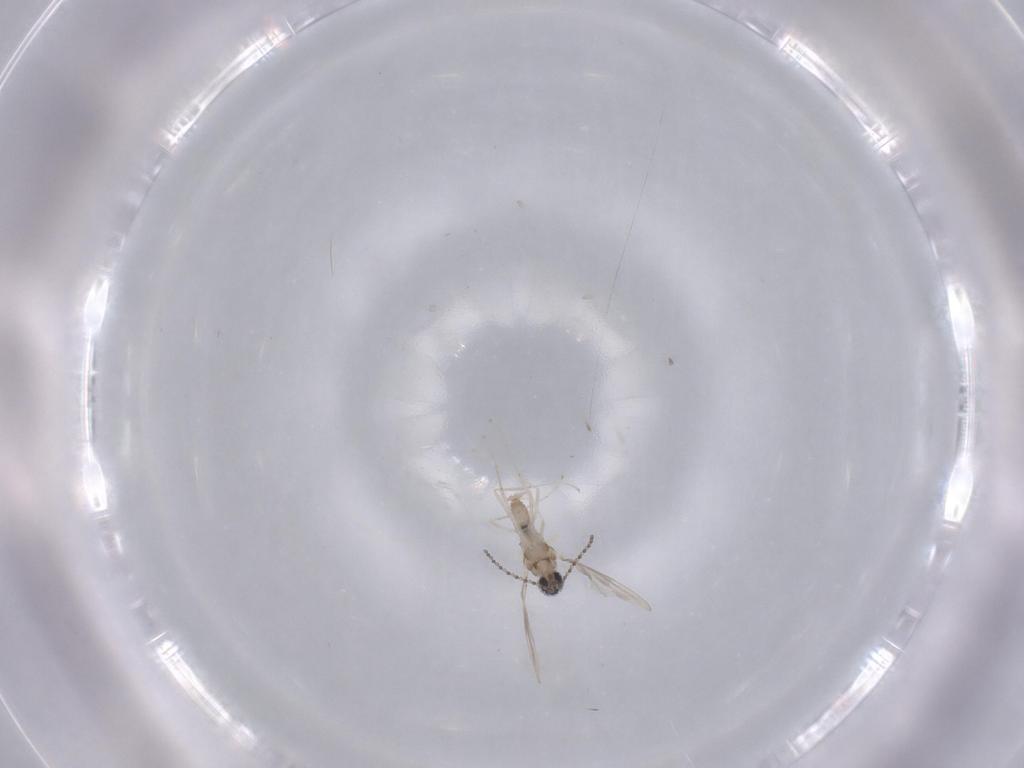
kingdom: Animalia
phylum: Arthropoda
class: Insecta
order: Diptera
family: Cecidomyiidae
